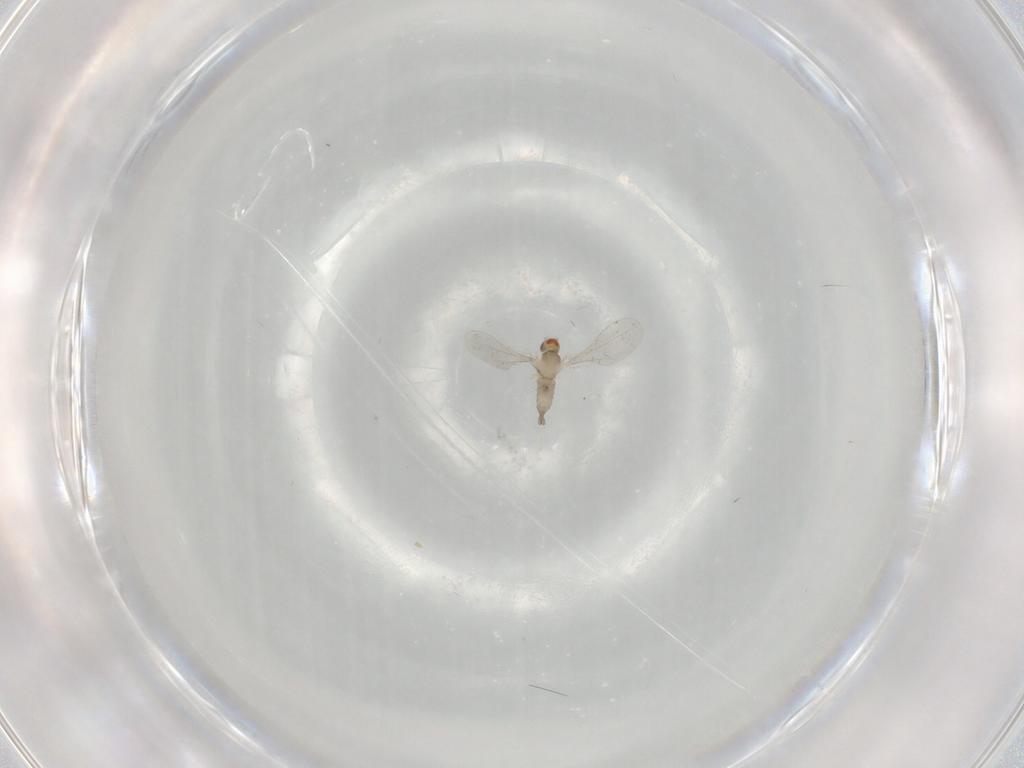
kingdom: Animalia
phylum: Arthropoda
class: Insecta
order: Diptera
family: Cecidomyiidae
